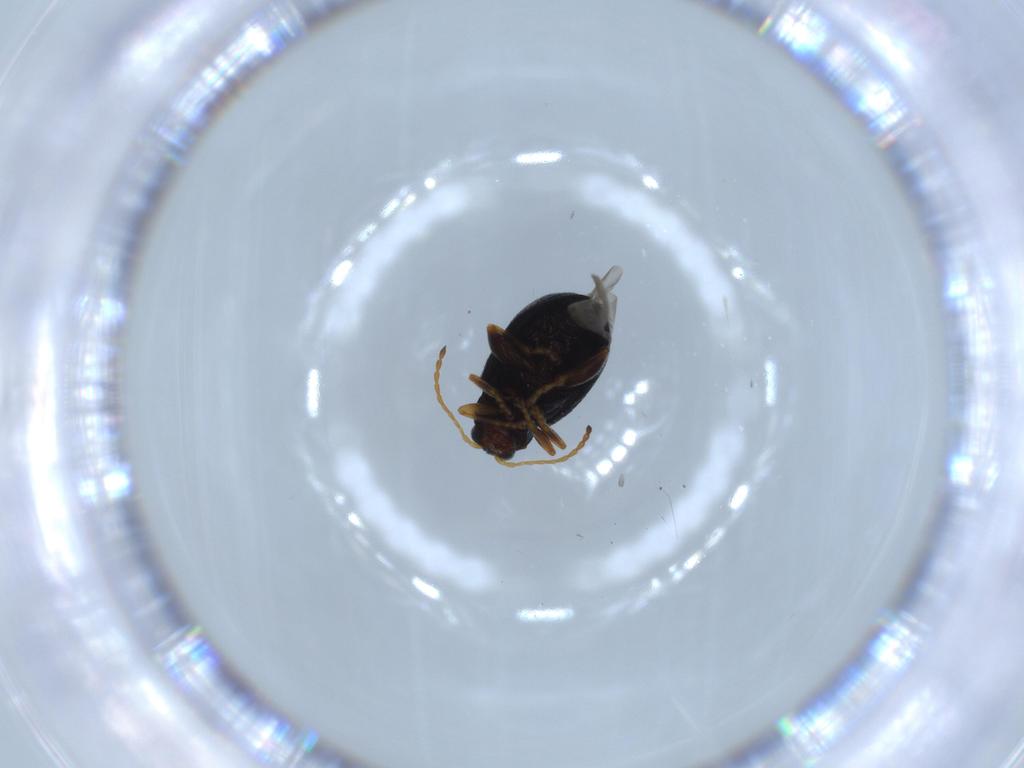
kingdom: Animalia
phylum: Arthropoda
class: Insecta
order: Coleoptera
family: Chrysomelidae
